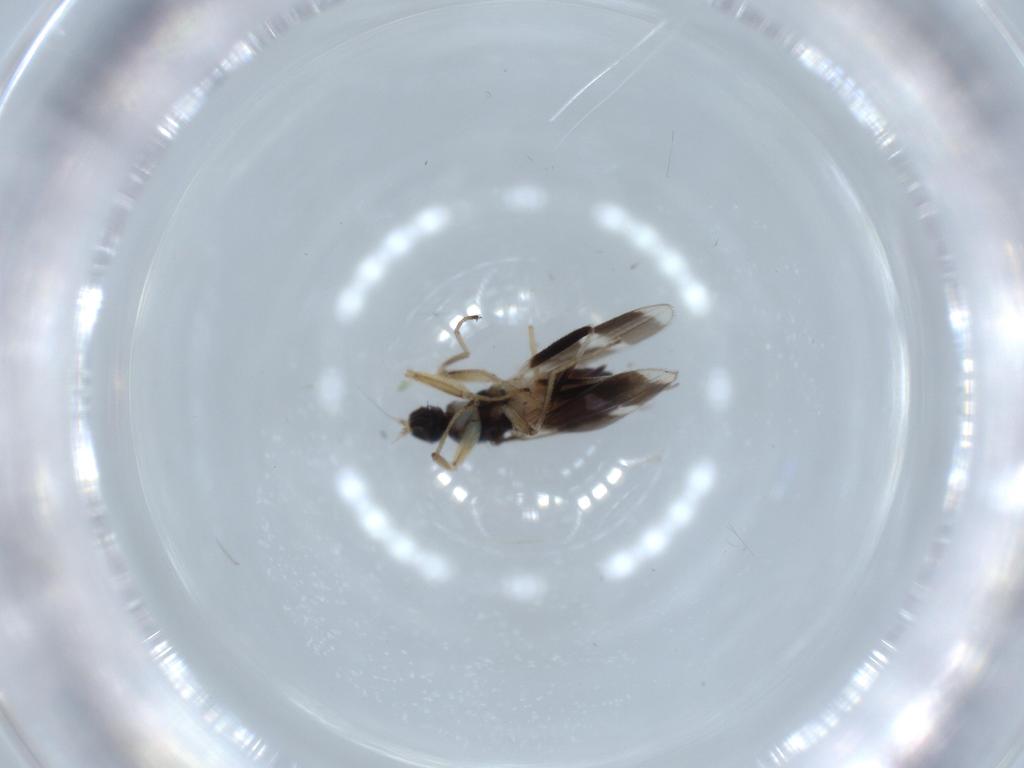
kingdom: Animalia
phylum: Arthropoda
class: Insecta
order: Diptera
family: Hybotidae
